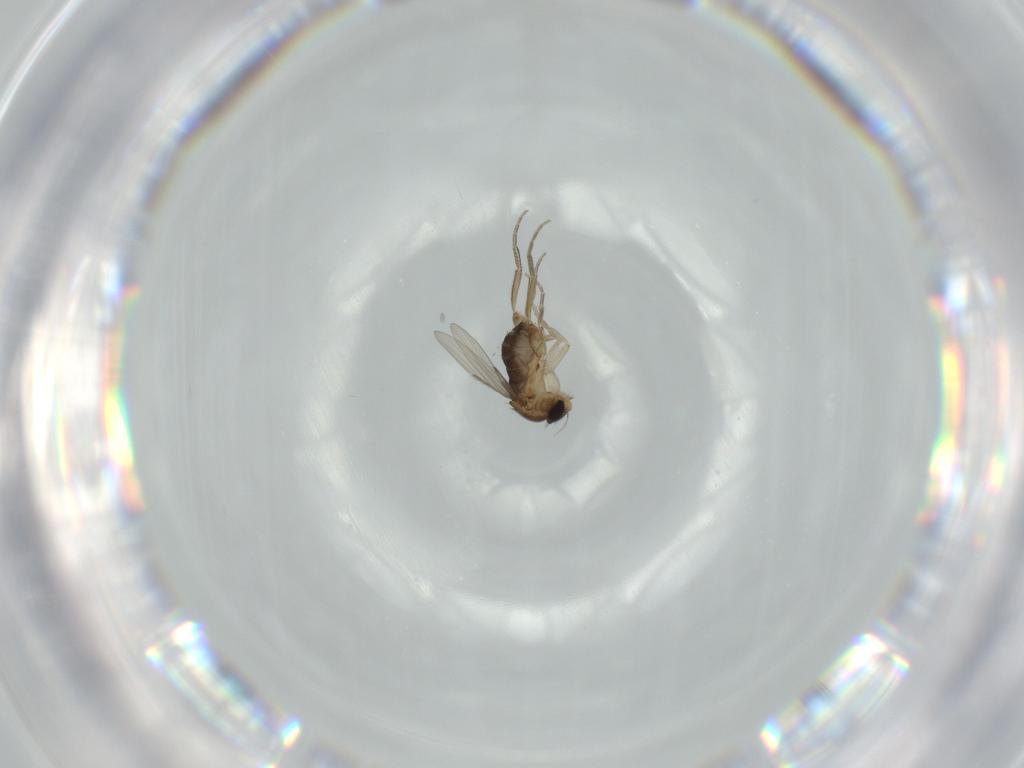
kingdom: Animalia
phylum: Arthropoda
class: Insecta
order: Diptera
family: Phoridae
